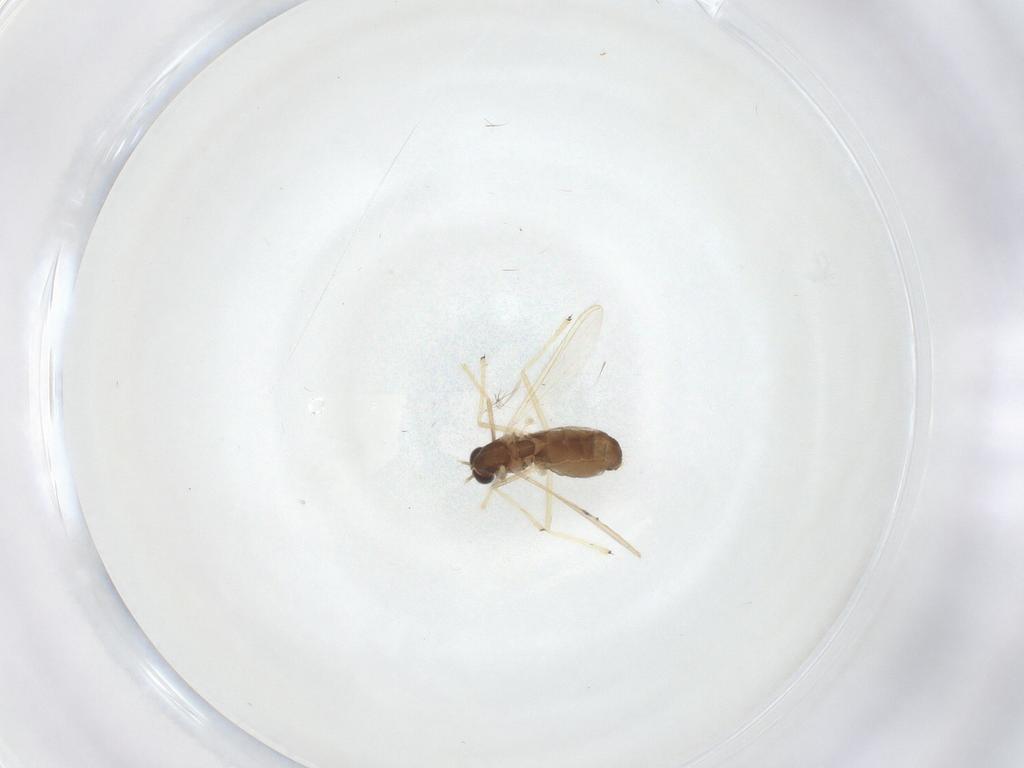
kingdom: Animalia
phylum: Arthropoda
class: Insecta
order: Diptera
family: Chironomidae
